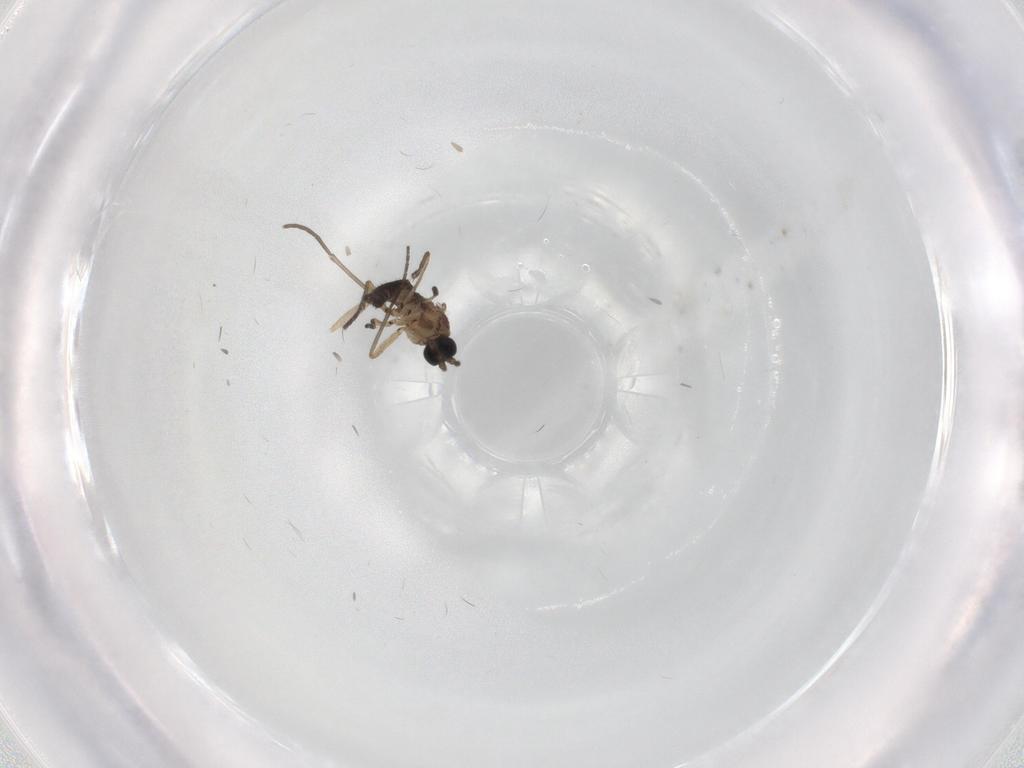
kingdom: Animalia
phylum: Arthropoda
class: Insecta
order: Diptera
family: Sciaridae
